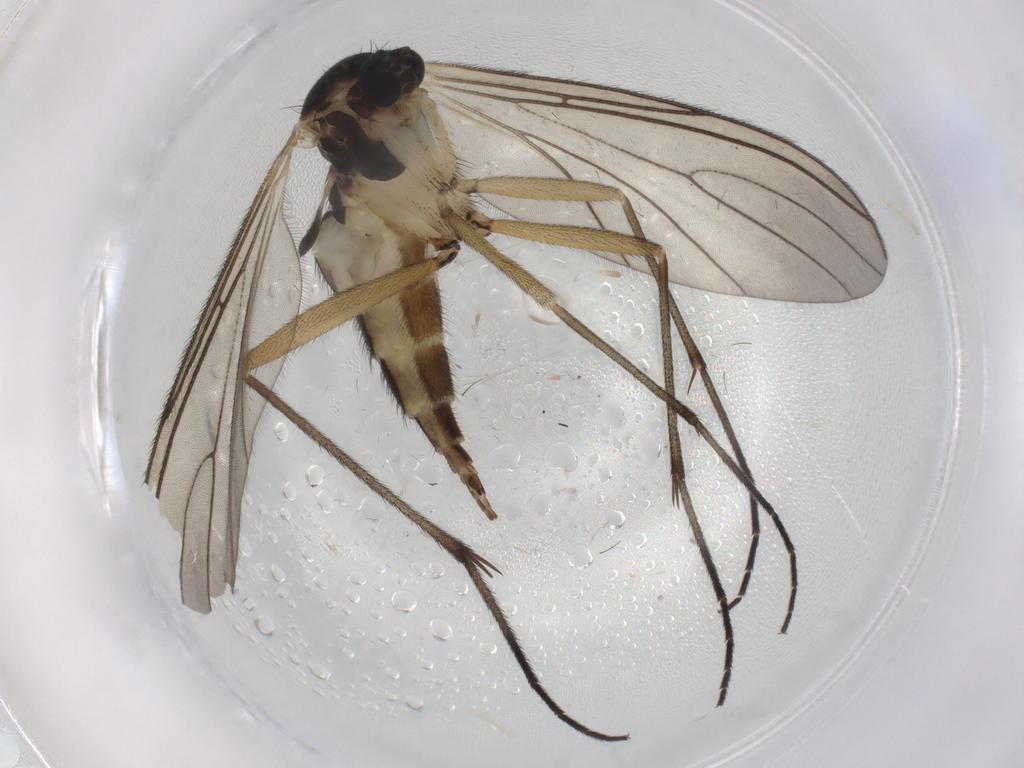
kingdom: Animalia
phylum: Arthropoda
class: Insecta
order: Diptera
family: Sciaridae
